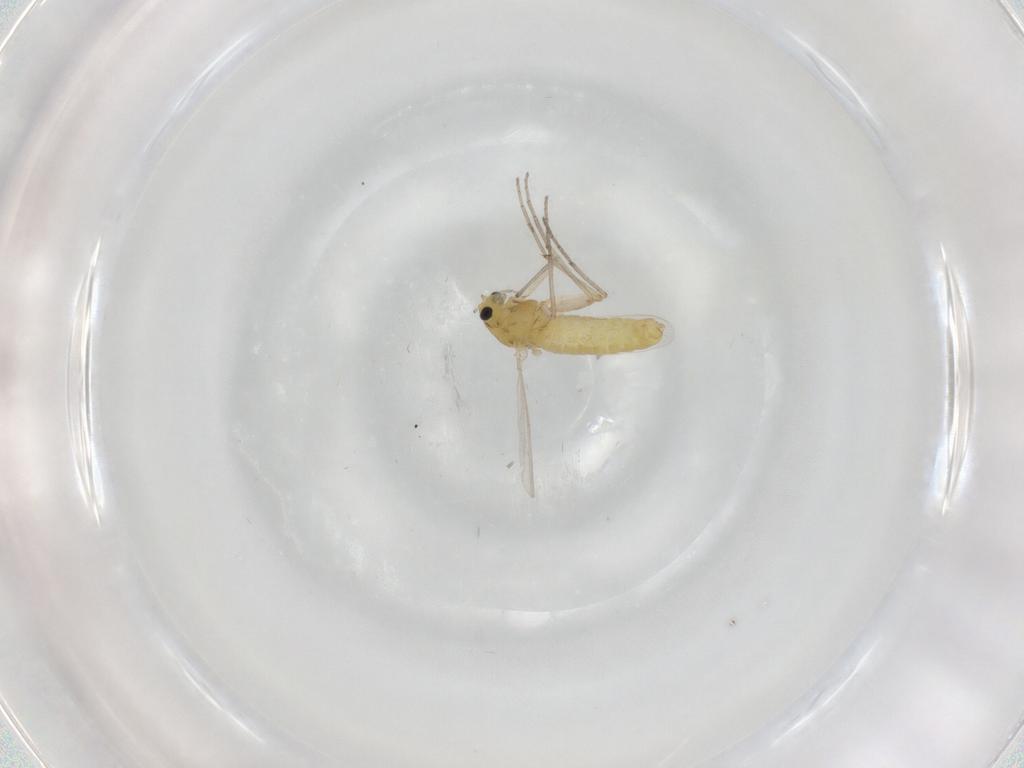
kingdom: Animalia
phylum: Arthropoda
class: Insecta
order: Diptera
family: Chironomidae
